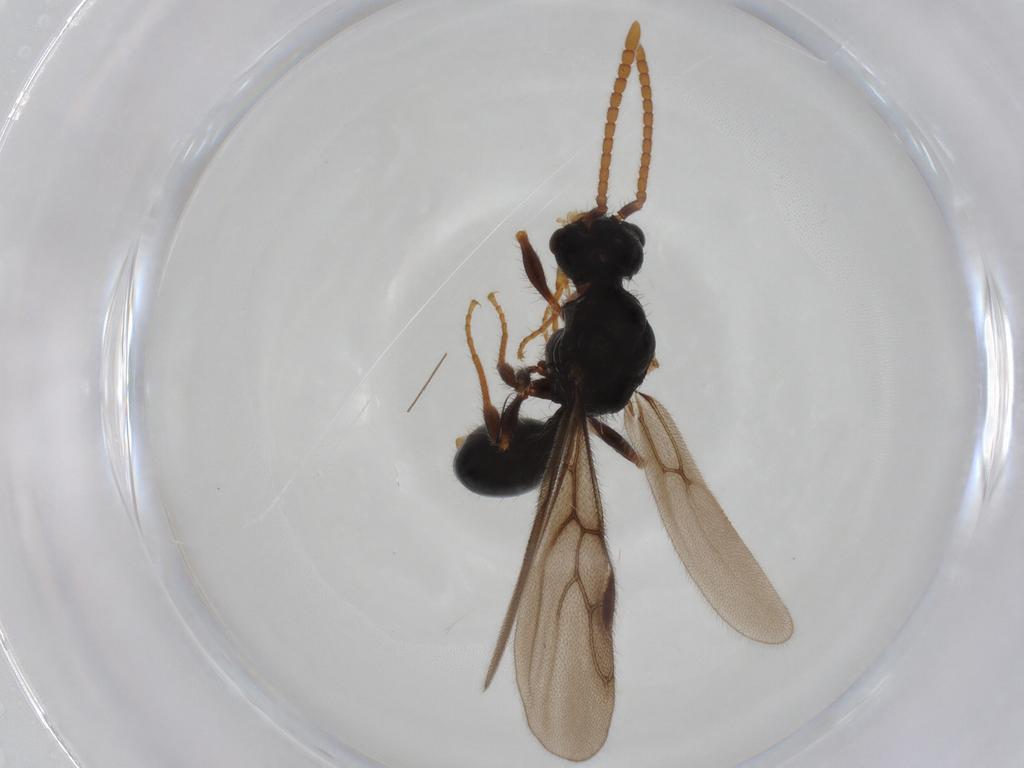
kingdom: Animalia
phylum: Arthropoda
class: Insecta
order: Hymenoptera
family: Formicidae
